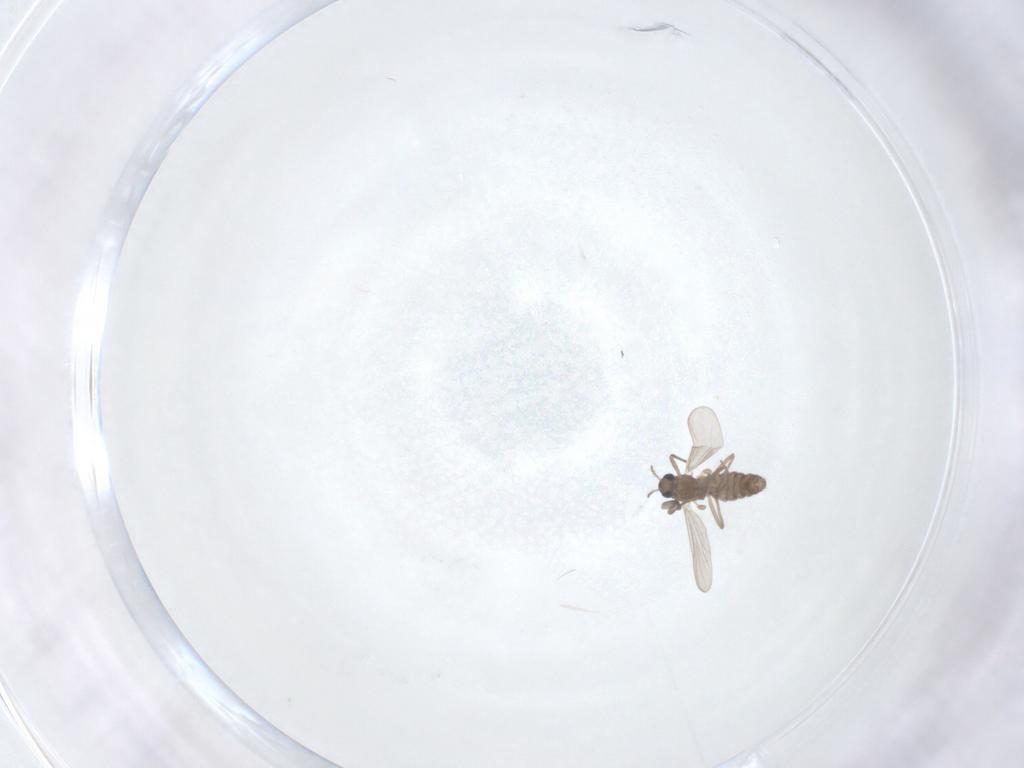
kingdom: Animalia
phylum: Arthropoda
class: Insecta
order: Diptera
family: Chironomidae
